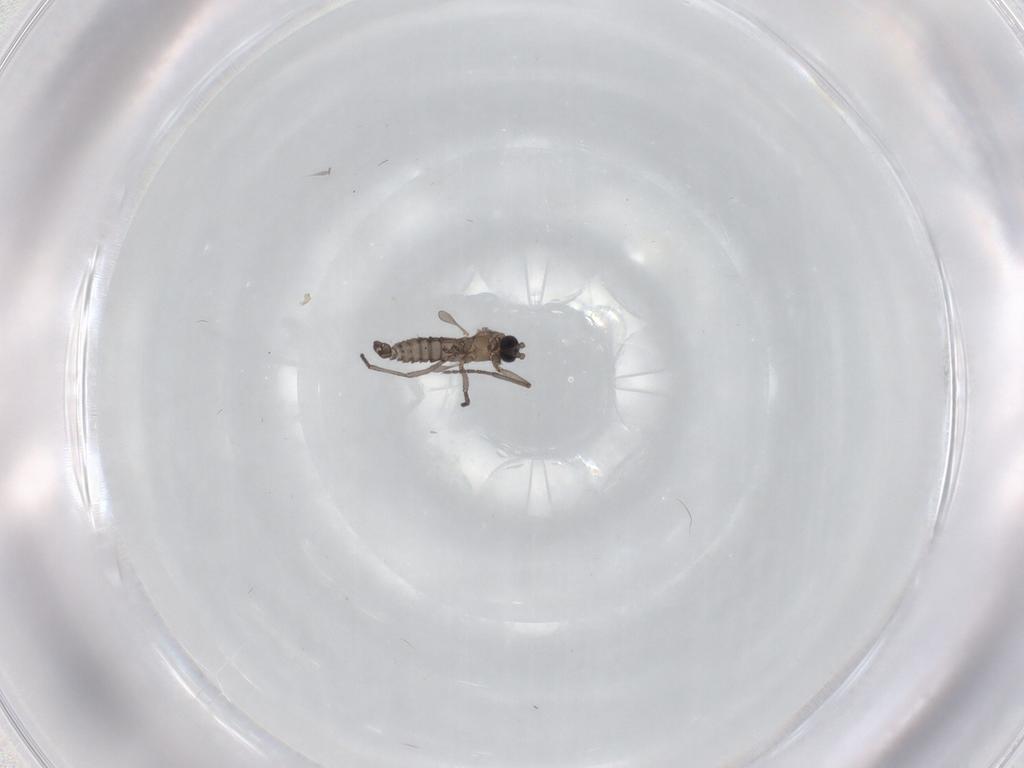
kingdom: Animalia
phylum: Arthropoda
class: Insecta
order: Diptera
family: Sciaridae
